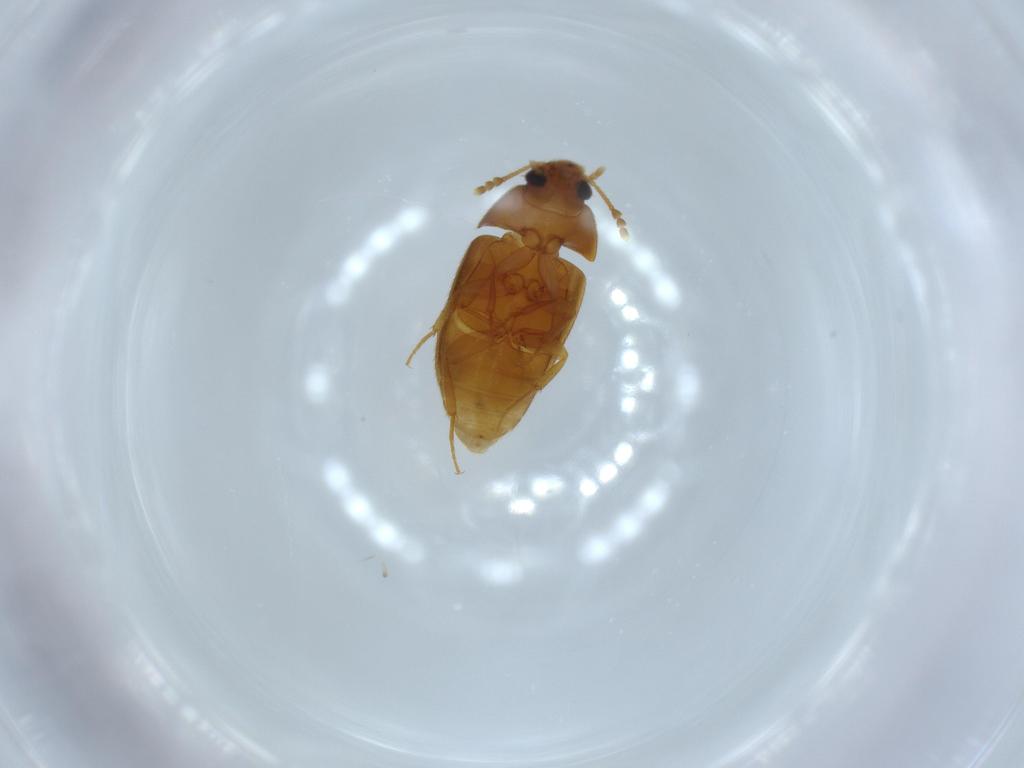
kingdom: Animalia
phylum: Arthropoda
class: Insecta
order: Coleoptera
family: Mycetophagidae
